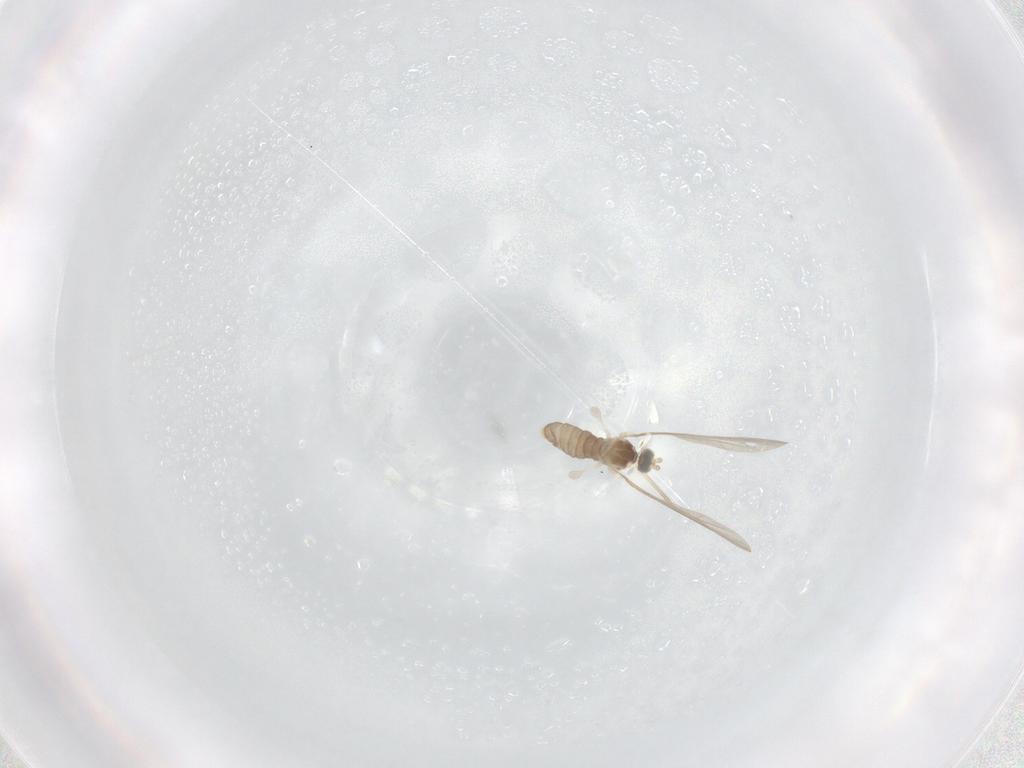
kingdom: Animalia
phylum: Arthropoda
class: Insecta
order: Diptera
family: Cecidomyiidae
